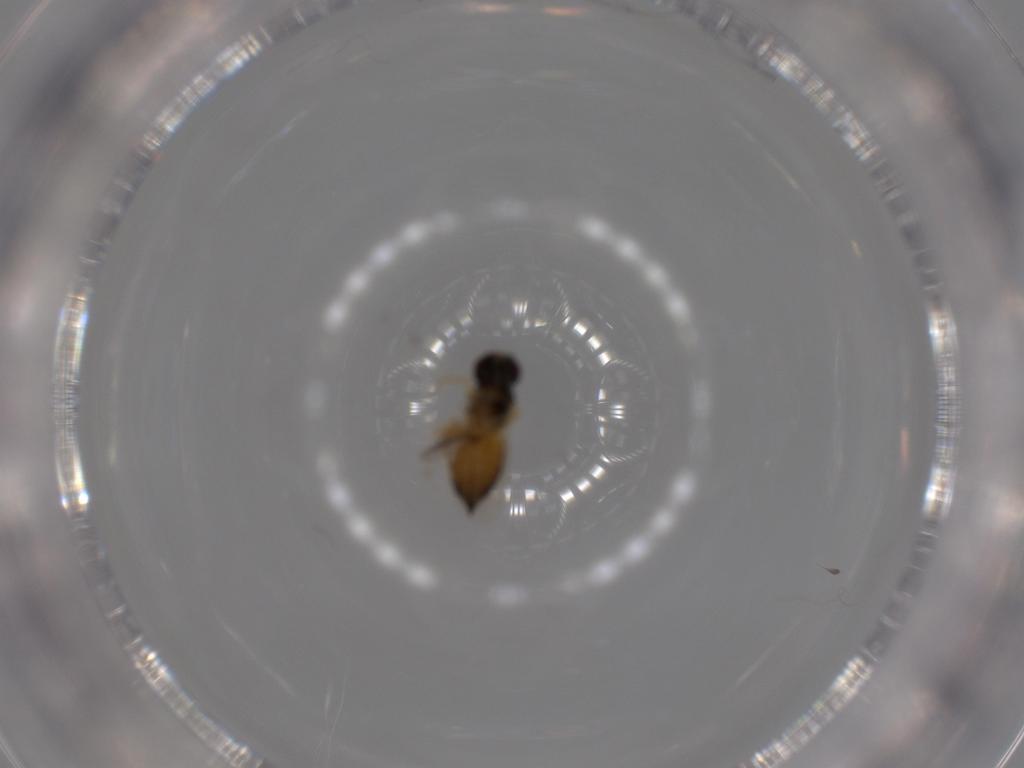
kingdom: Animalia
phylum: Arthropoda
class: Insecta
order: Hymenoptera
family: Eulophidae
